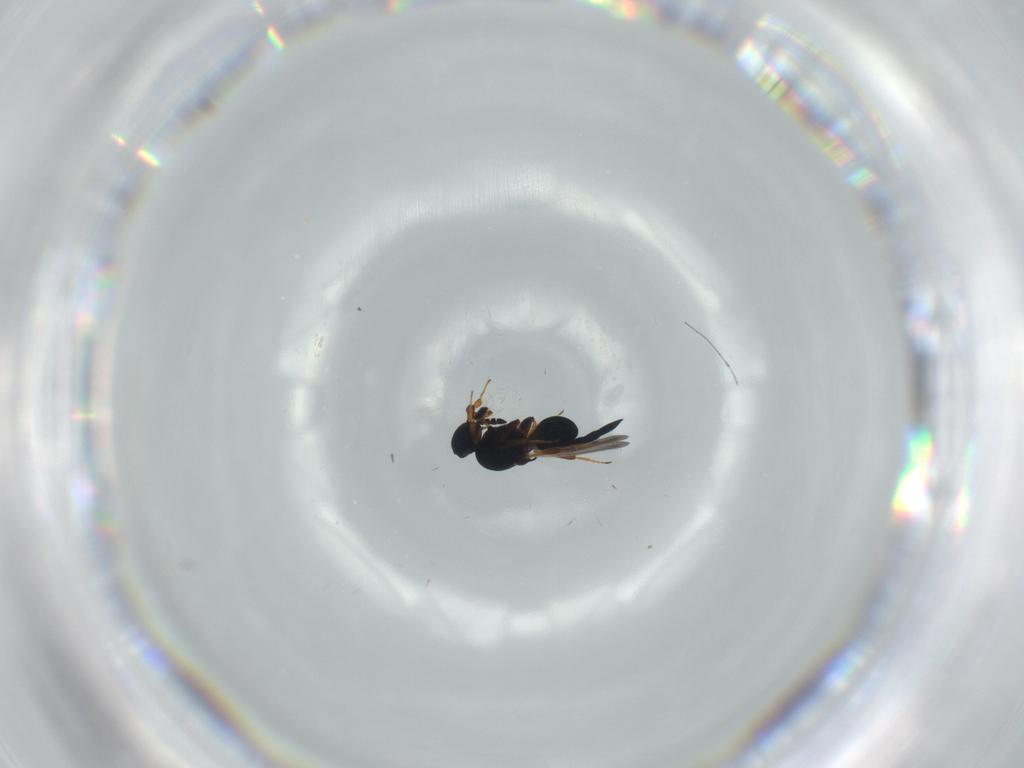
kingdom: Animalia
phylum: Arthropoda
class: Insecta
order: Hymenoptera
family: Platygastridae
